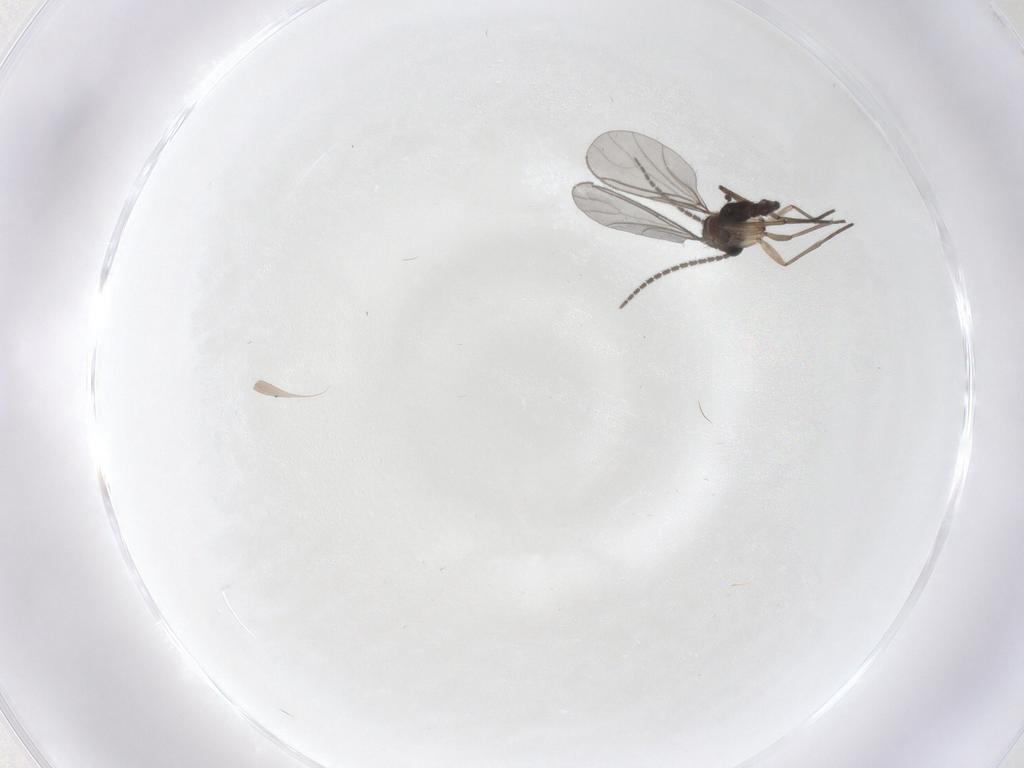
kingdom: Animalia
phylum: Arthropoda
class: Insecta
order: Diptera
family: Sciaridae
